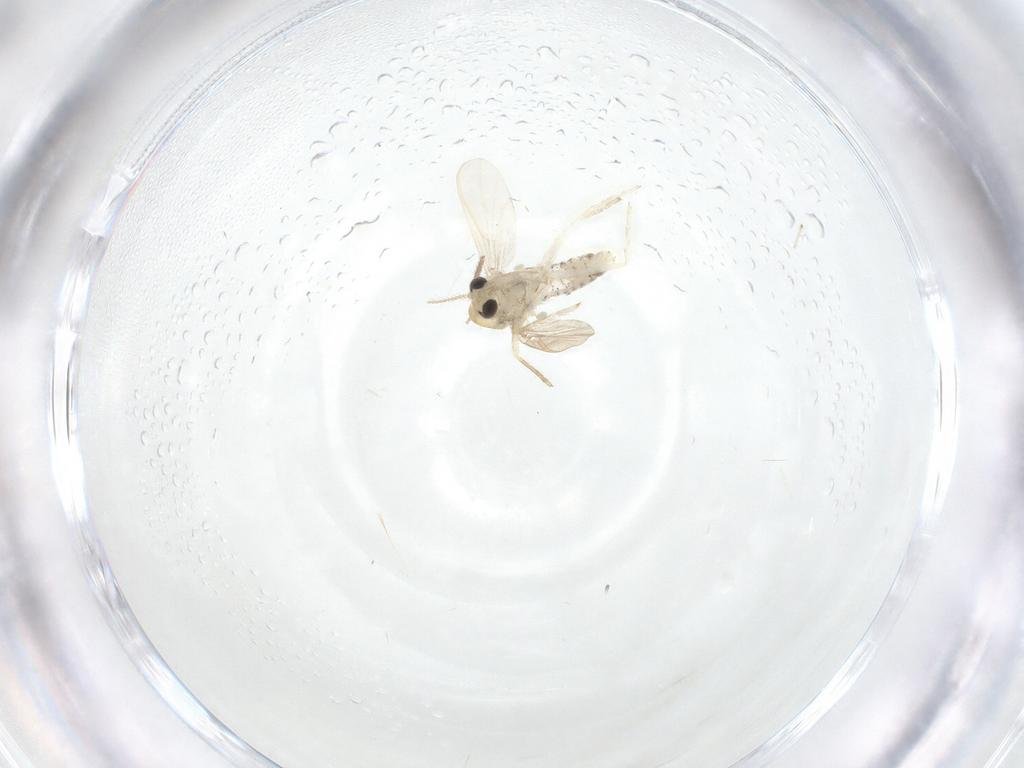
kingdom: Animalia
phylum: Arthropoda
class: Insecta
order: Diptera
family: Phoridae
